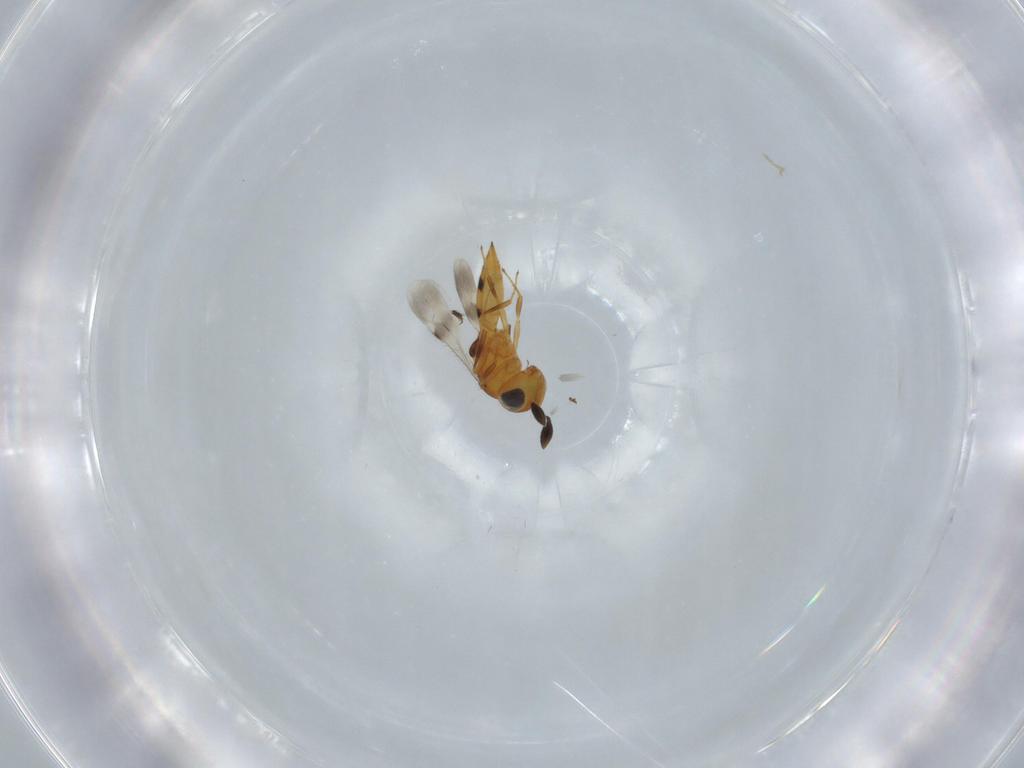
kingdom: Animalia
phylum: Arthropoda
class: Insecta
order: Hymenoptera
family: Scelionidae
